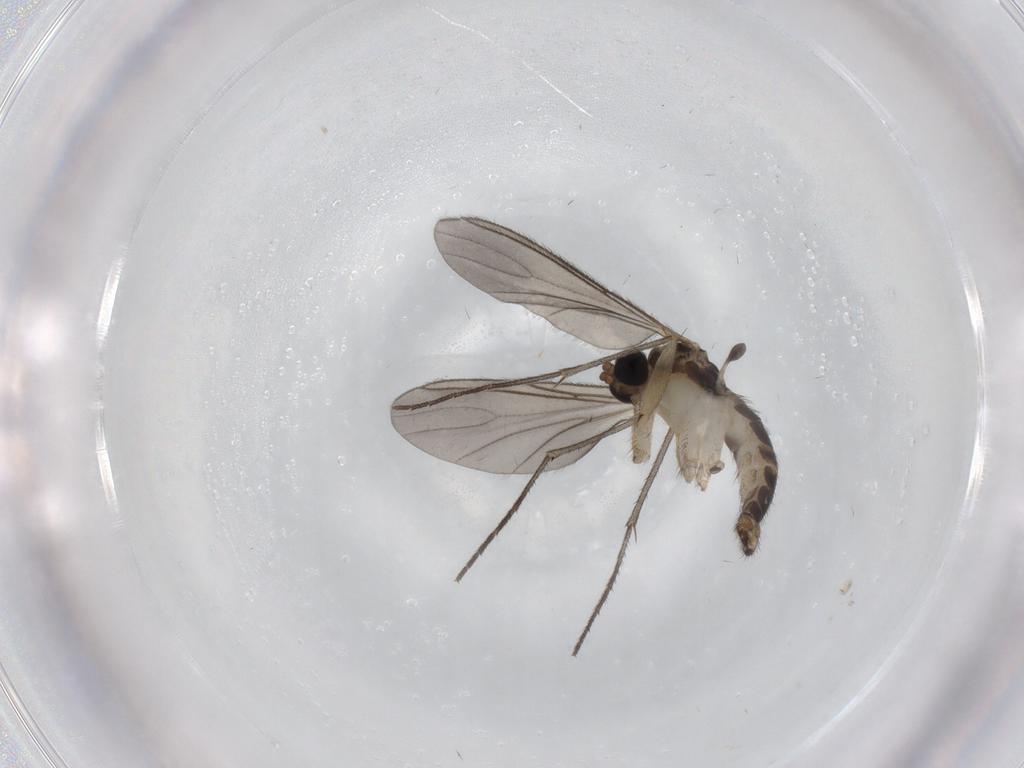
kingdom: Animalia
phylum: Arthropoda
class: Insecta
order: Diptera
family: Sciaridae
